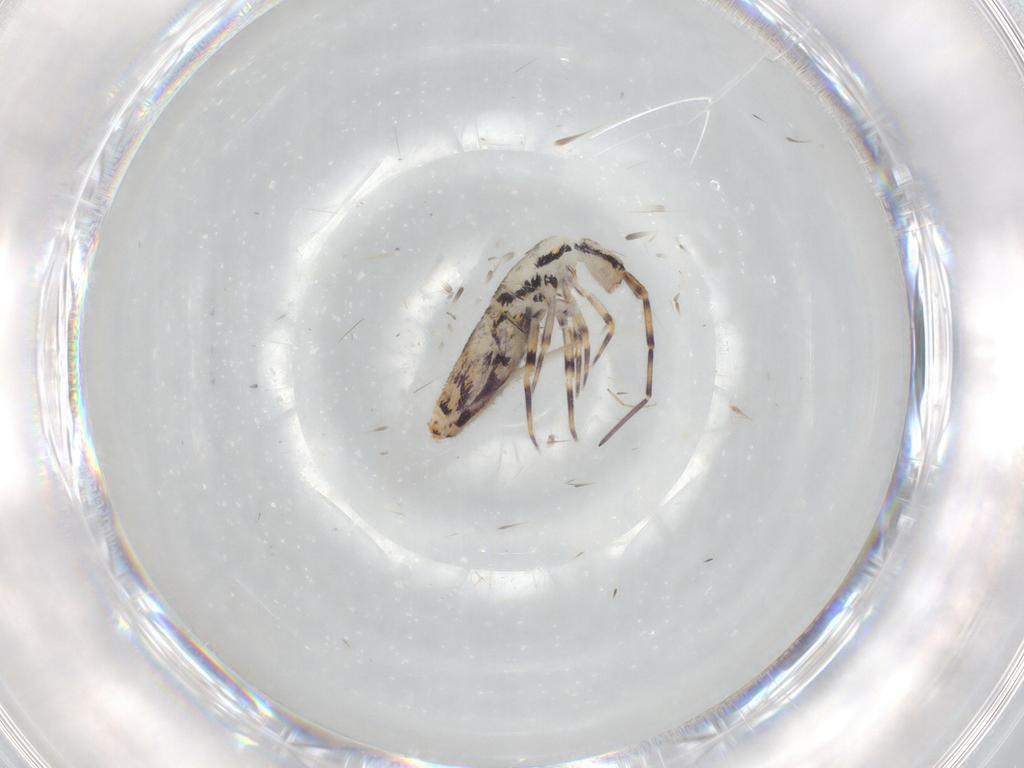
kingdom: Animalia
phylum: Arthropoda
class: Collembola
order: Entomobryomorpha
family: Entomobryidae
